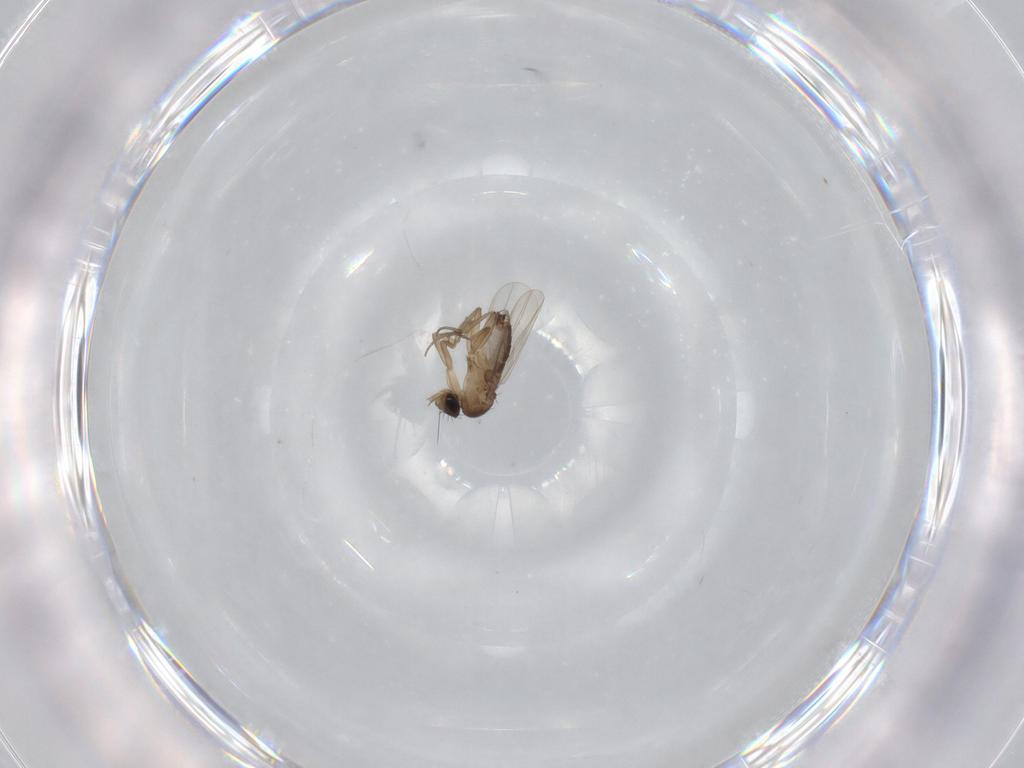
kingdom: Animalia
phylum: Arthropoda
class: Insecta
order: Diptera
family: Phoridae
